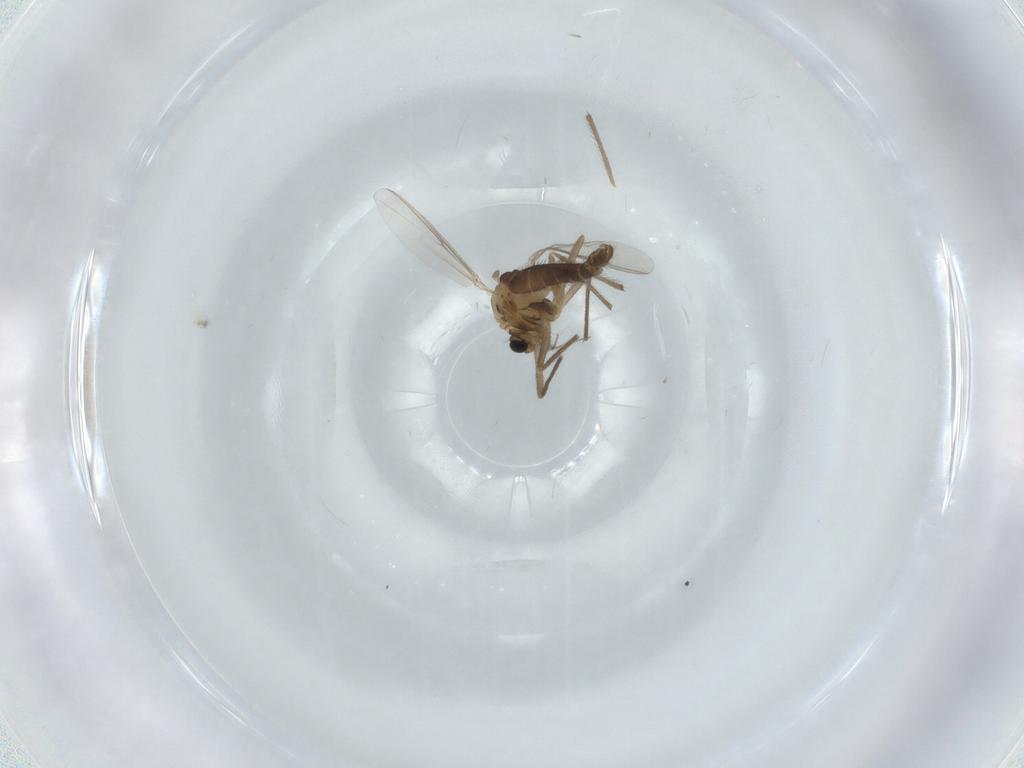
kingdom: Animalia
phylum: Arthropoda
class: Insecta
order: Diptera
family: Chironomidae
